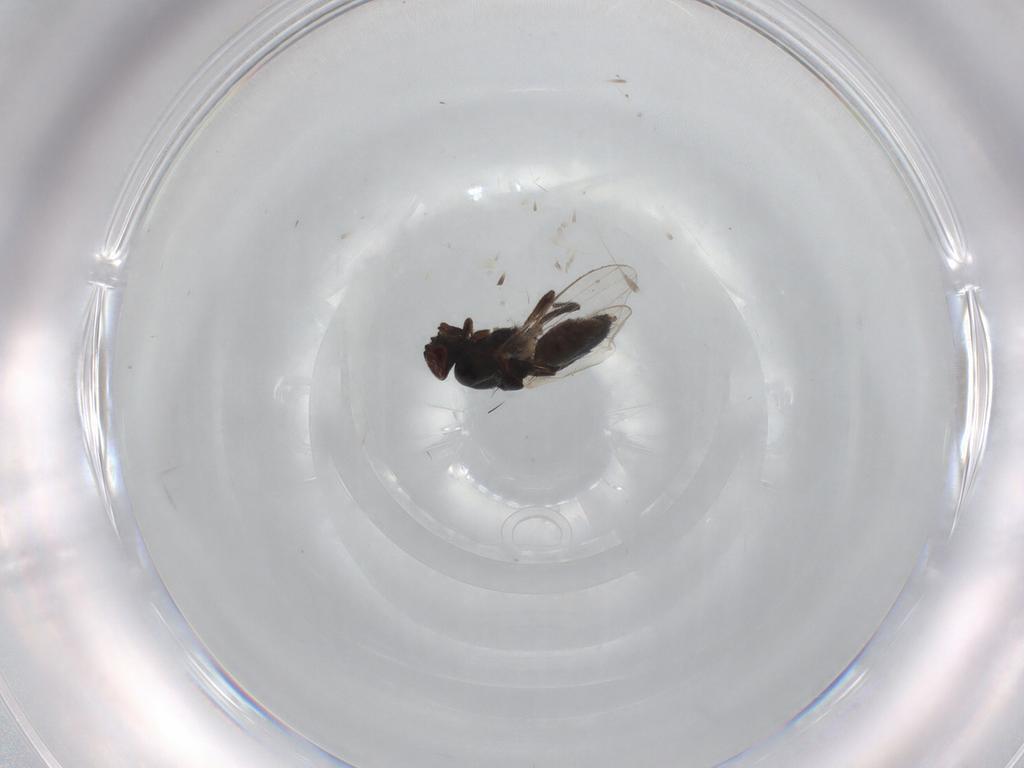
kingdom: Animalia
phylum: Arthropoda
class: Insecta
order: Diptera
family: Milichiidae
